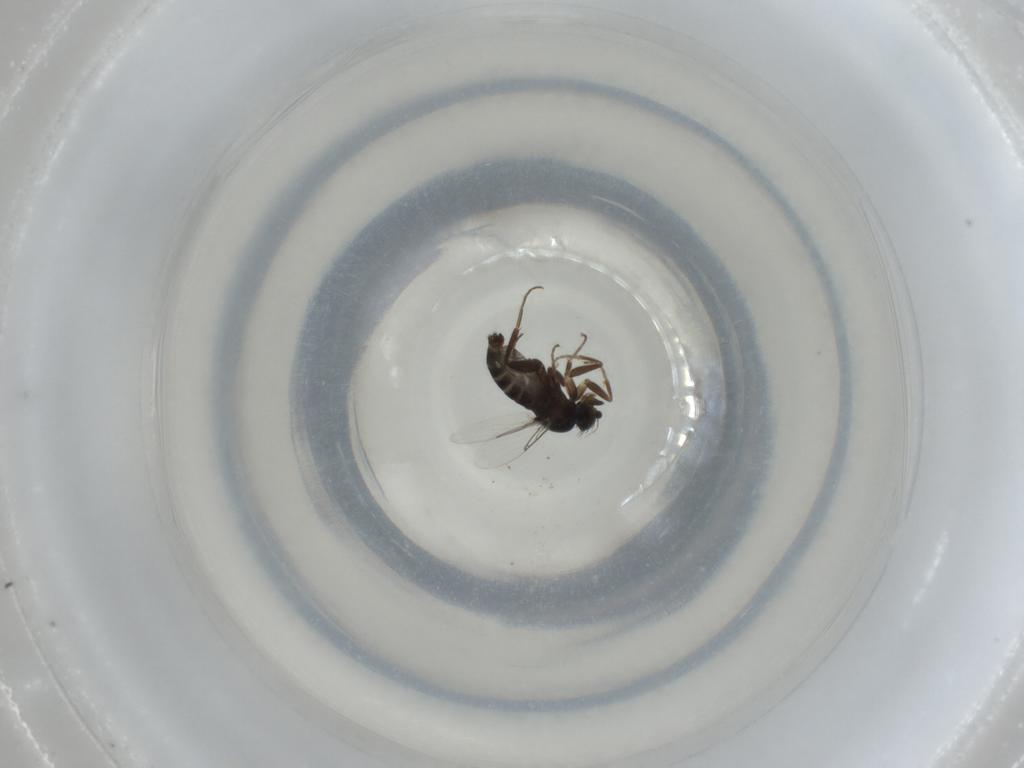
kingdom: Animalia
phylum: Arthropoda
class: Insecta
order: Diptera
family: Phoridae
